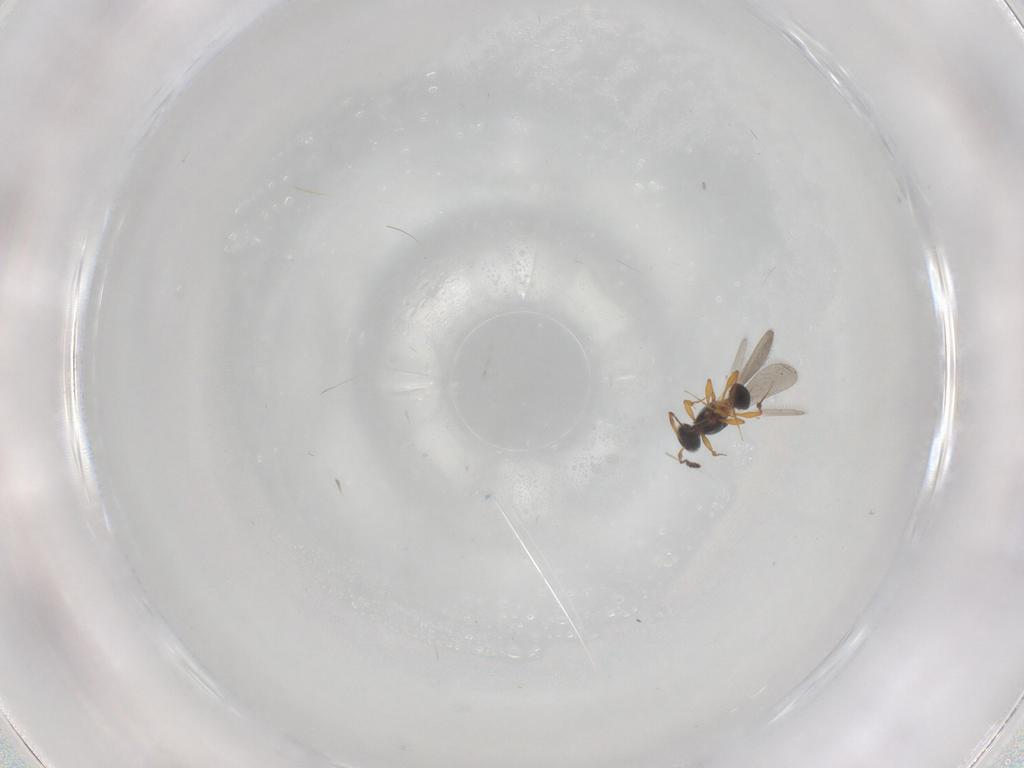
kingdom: Animalia
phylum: Arthropoda
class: Insecta
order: Hymenoptera
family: Platygastridae
